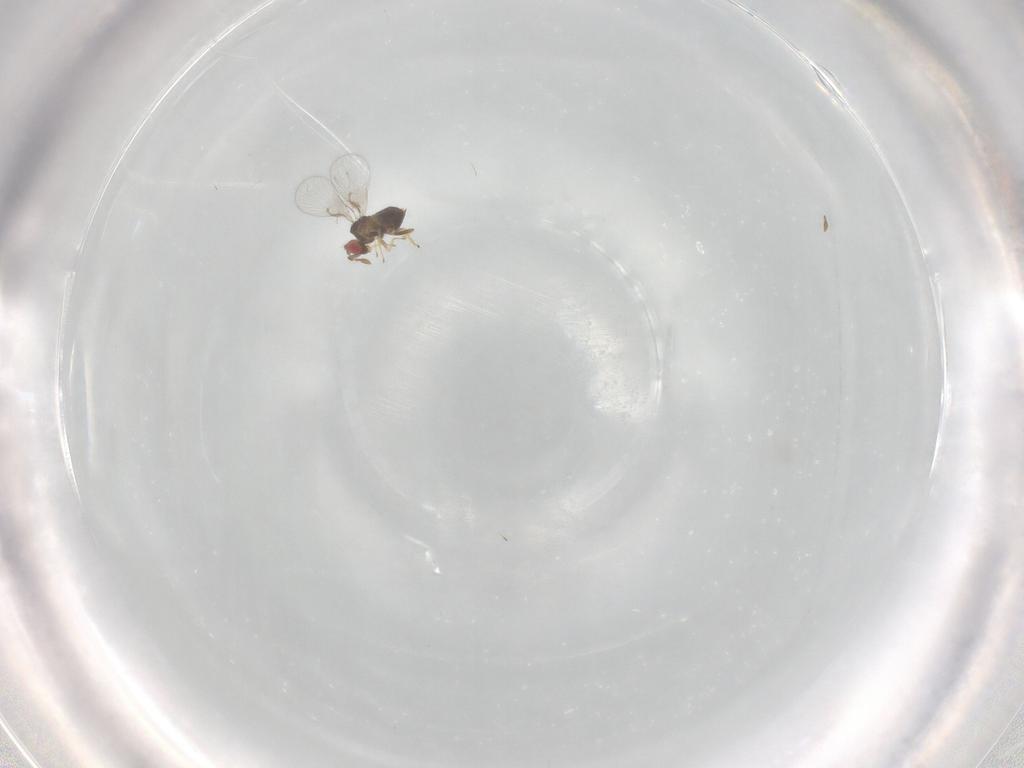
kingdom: Animalia
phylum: Arthropoda
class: Insecta
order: Hymenoptera
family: Trichogrammatidae
